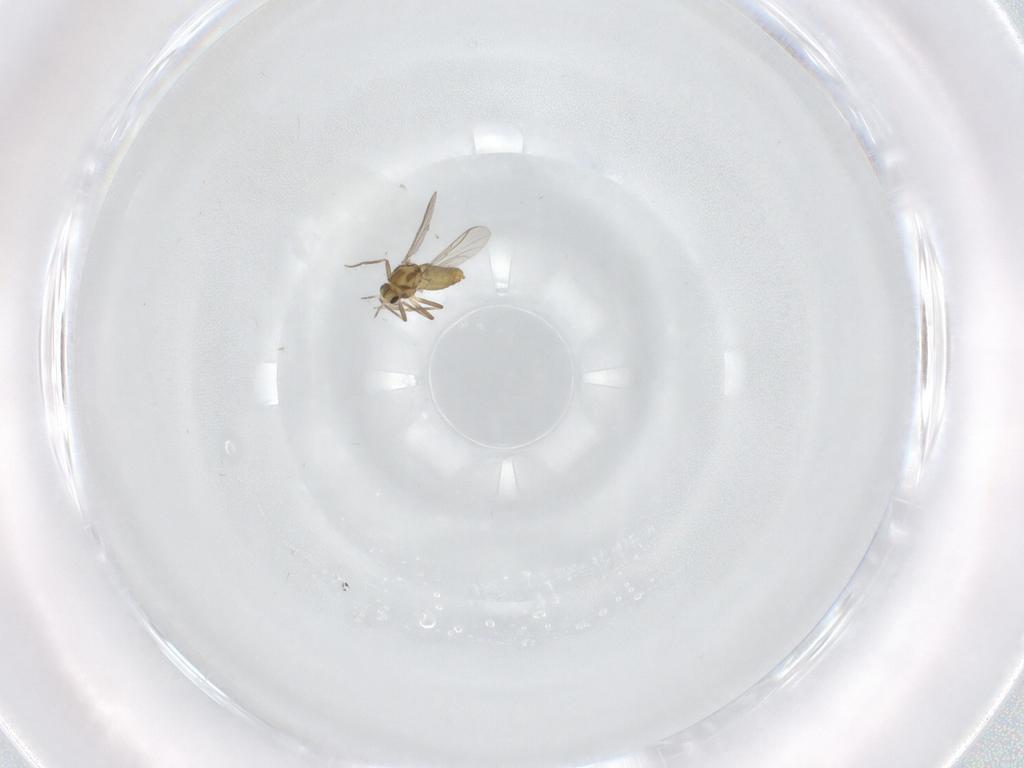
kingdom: Animalia
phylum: Arthropoda
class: Insecta
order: Diptera
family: Chironomidae
